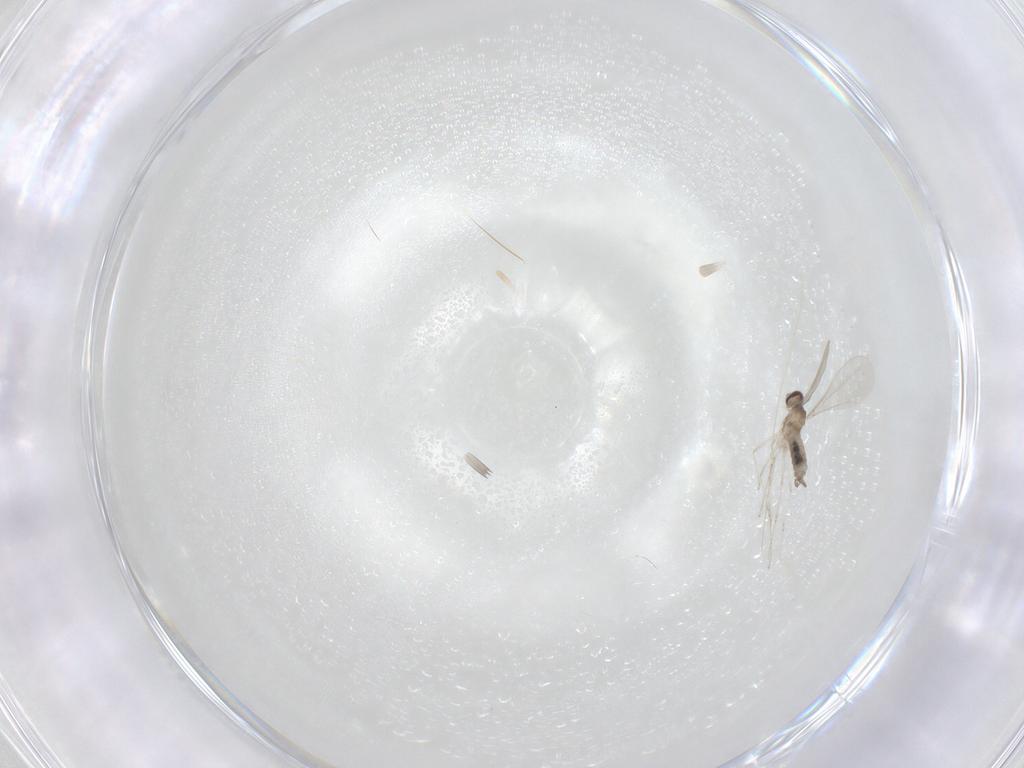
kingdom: Animalia
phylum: Arthropoda
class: Insecta
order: Diptera
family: Cecidomyiidae
